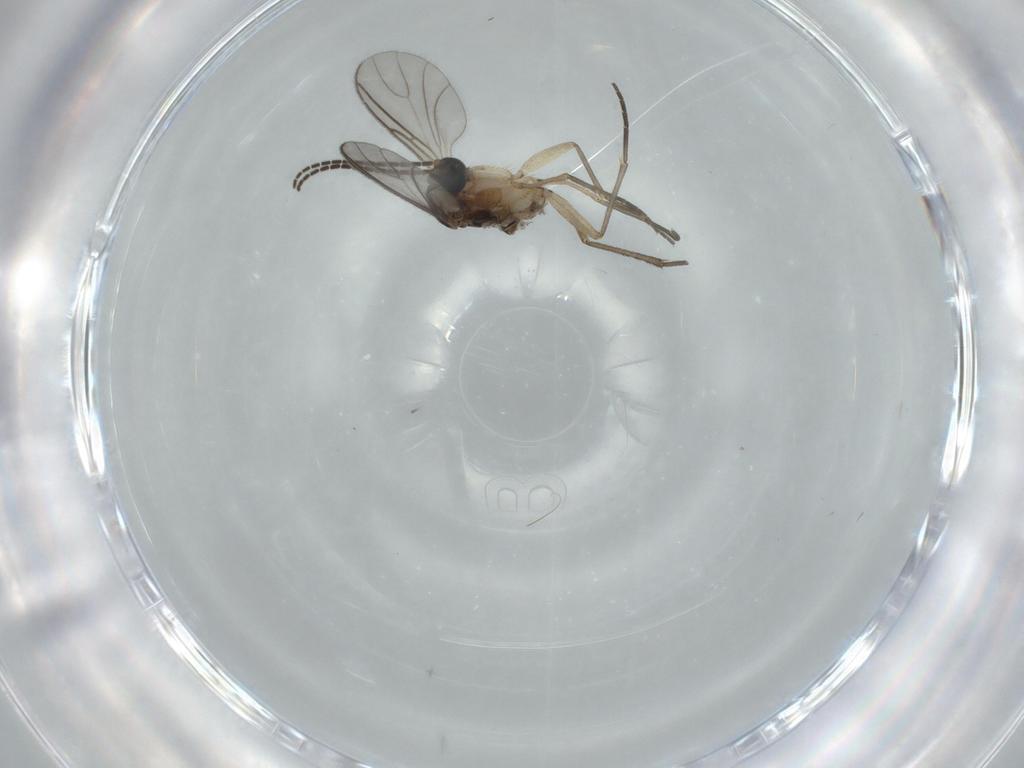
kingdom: Animalia
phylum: Arthropoda
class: Insecta
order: Diptera
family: Sciaridae
